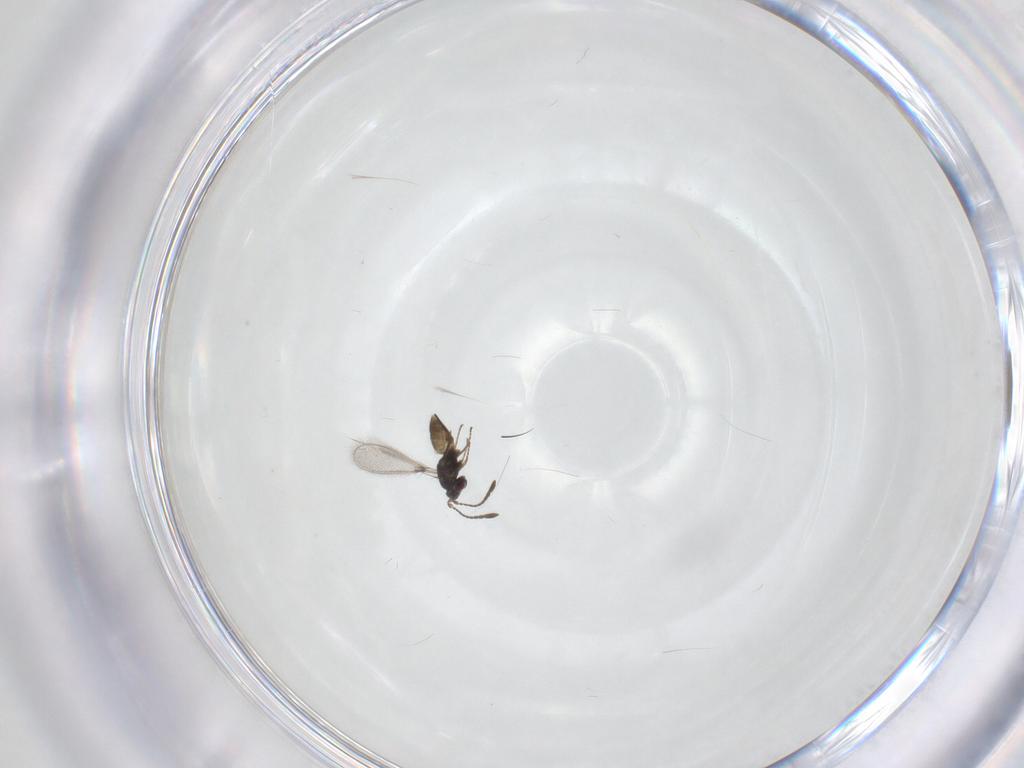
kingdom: Animalia
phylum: Arthropoda
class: Insecta
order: Hymenoptera
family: Mymaridae
